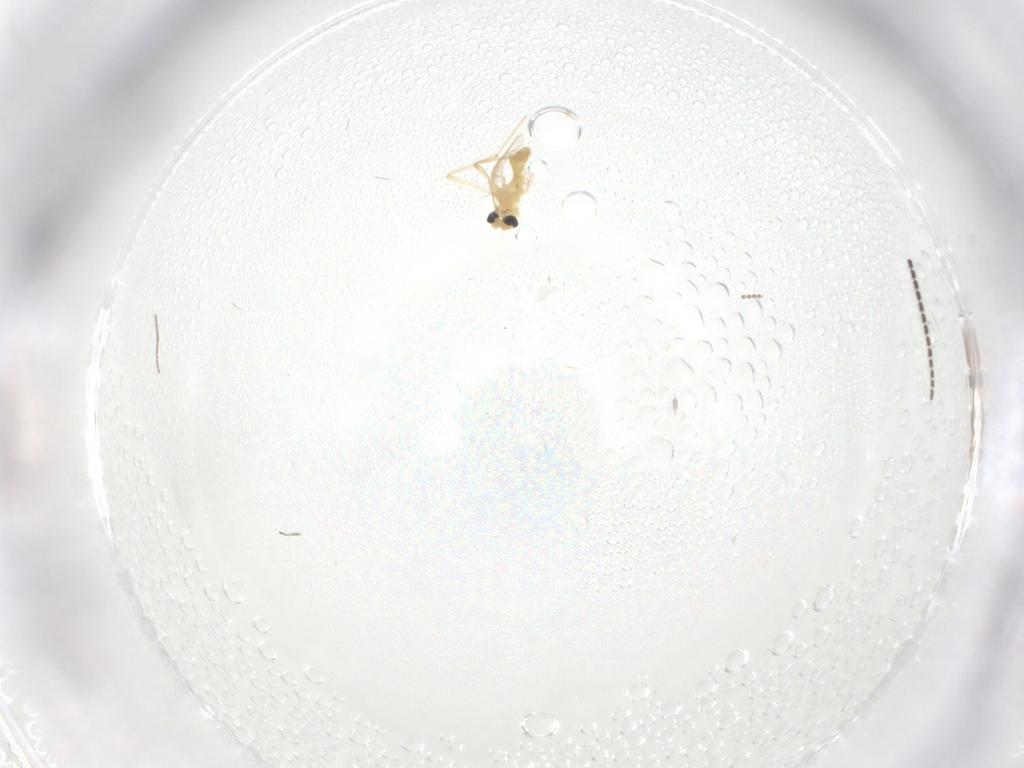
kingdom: Animalia
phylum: Arthropoda
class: Insecta
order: Diptera
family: Cecidomyiidae
